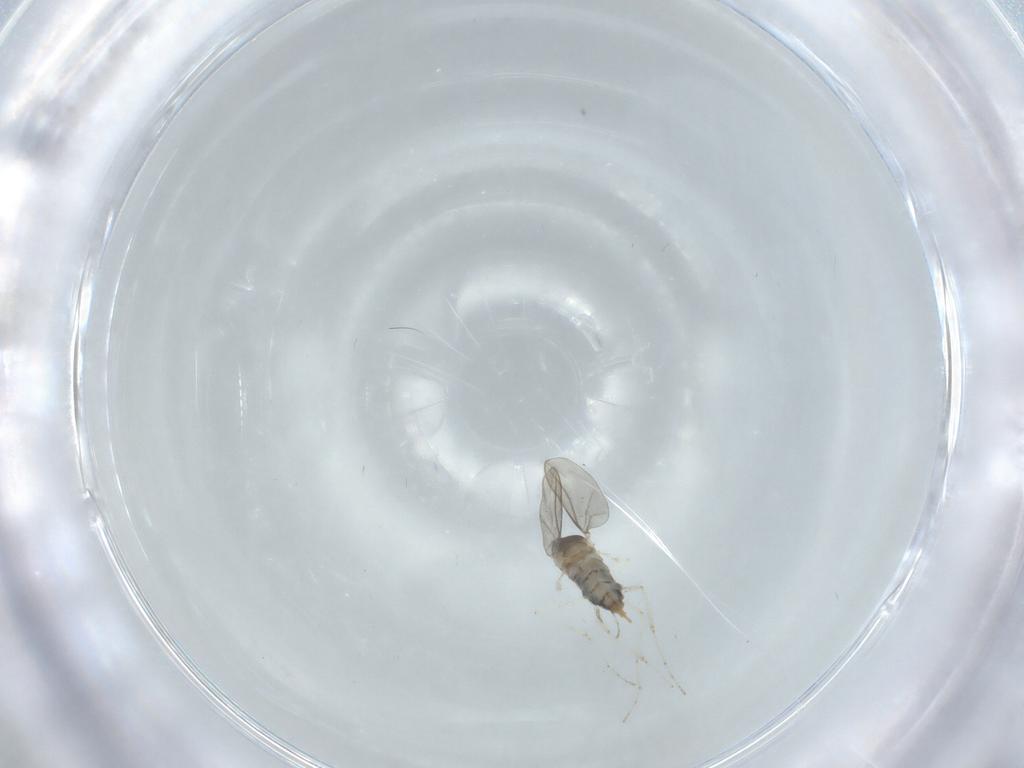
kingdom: Animalia
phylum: Arthropoda
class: Insecta
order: Diptera
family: Cecidomyiidae
